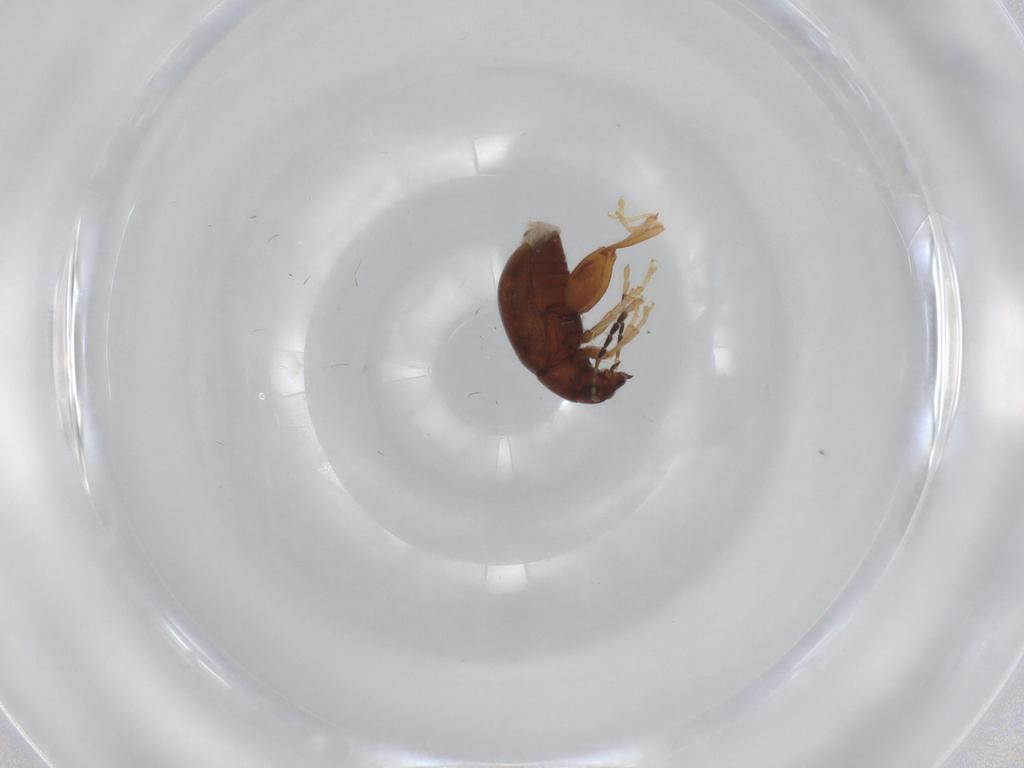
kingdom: Animalia
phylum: Arthropoda
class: Insecta
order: Coleoptera
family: Chrysomelidae
